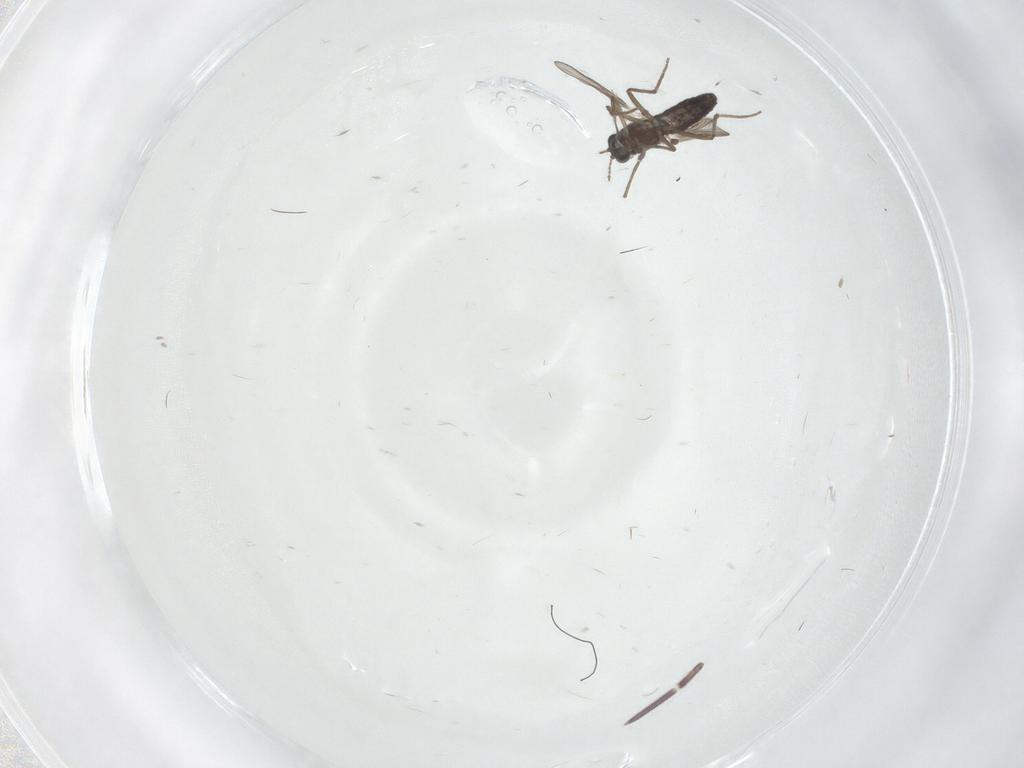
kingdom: Animalia
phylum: Arthropoda
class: Insecta
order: Diptera
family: Chironomidae
